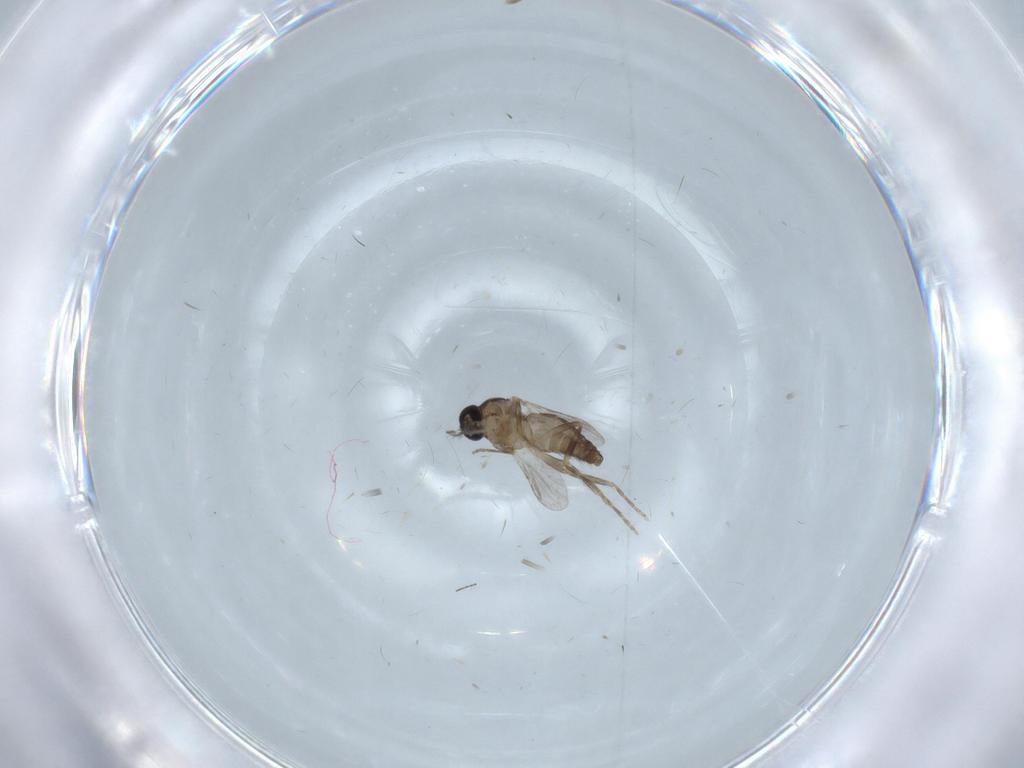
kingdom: Animalia
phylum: Arthropoda
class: Insecta
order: Diptera
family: Ceratopogonidae
